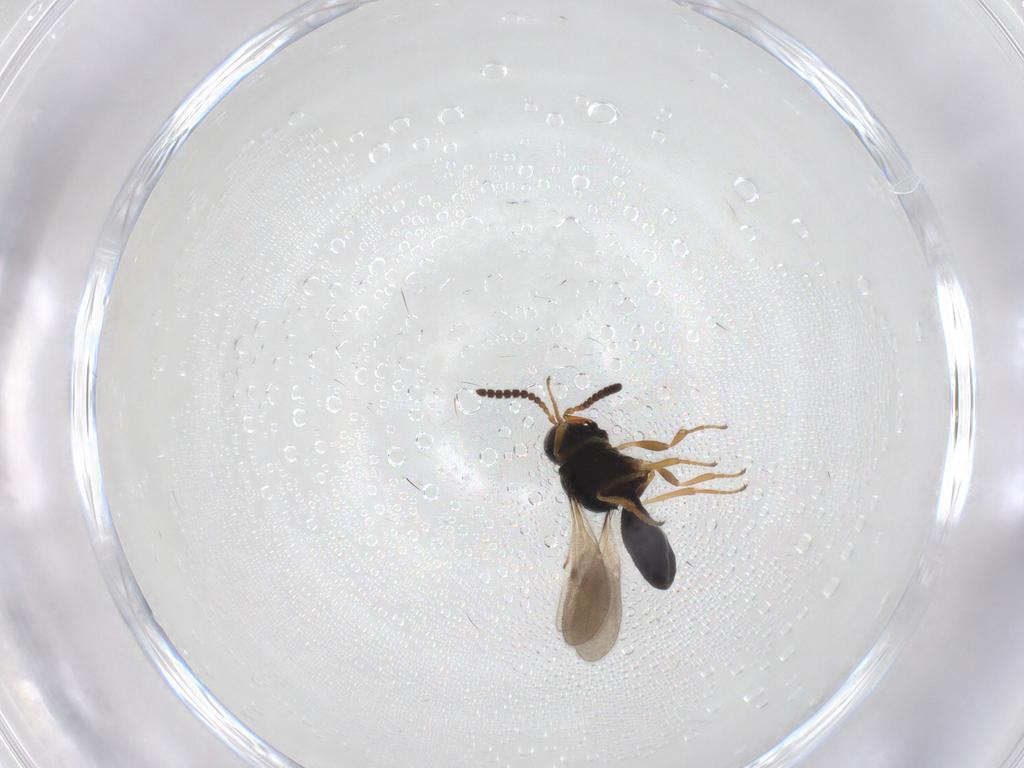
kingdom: Animalia
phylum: Arthropoda
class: Insecta
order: Hymenoptera
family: Scelionidae
